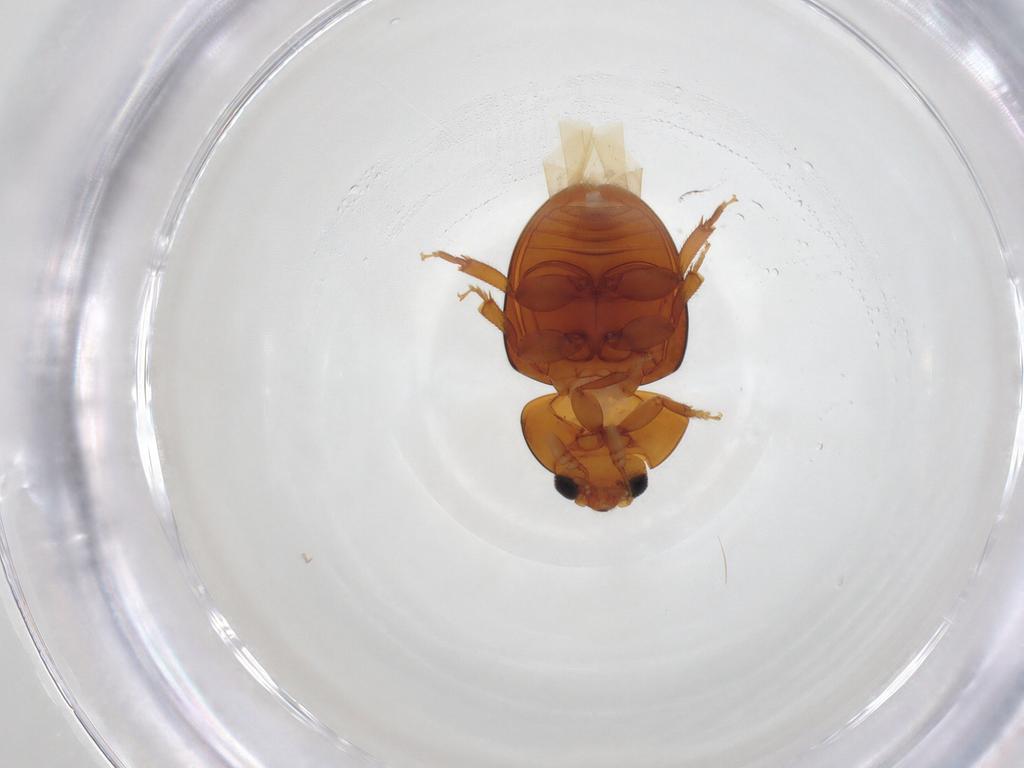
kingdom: Animalia
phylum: Arthropoda
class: Insecta
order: Coleoptera
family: Phalacridae
